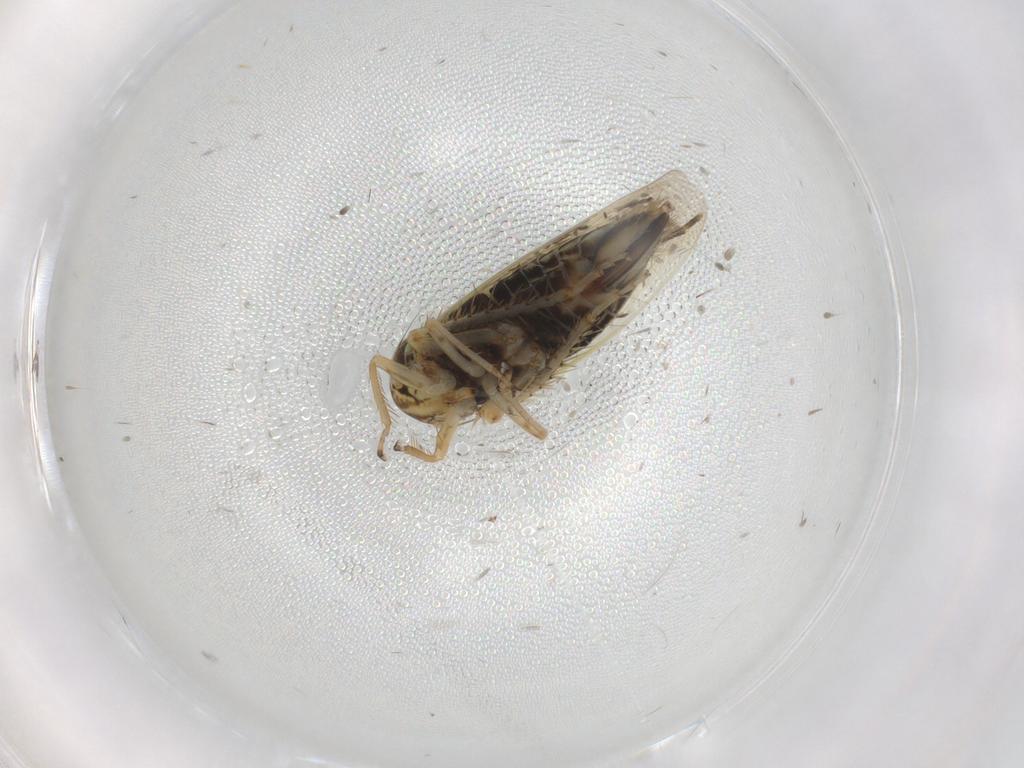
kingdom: Animalia
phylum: Arthropoda
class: Insecta
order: Hemiptera
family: Cicadellidae
